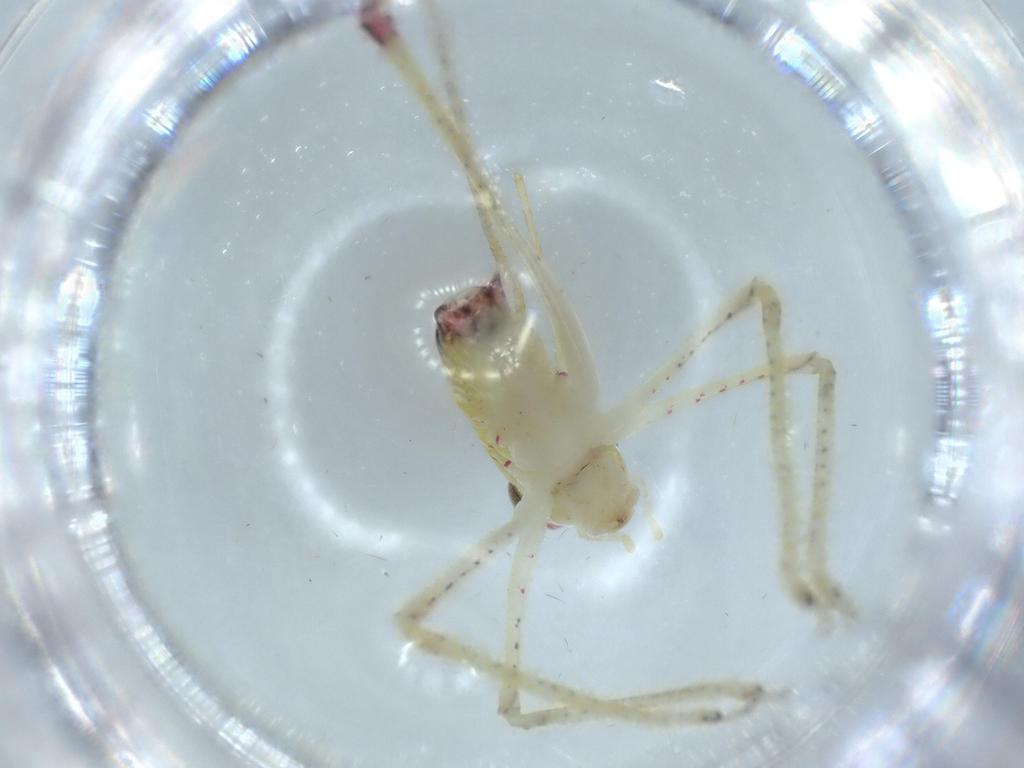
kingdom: Animalia
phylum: Arthropoda
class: Insecta
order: Orthoptera
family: Tettigoniidae
